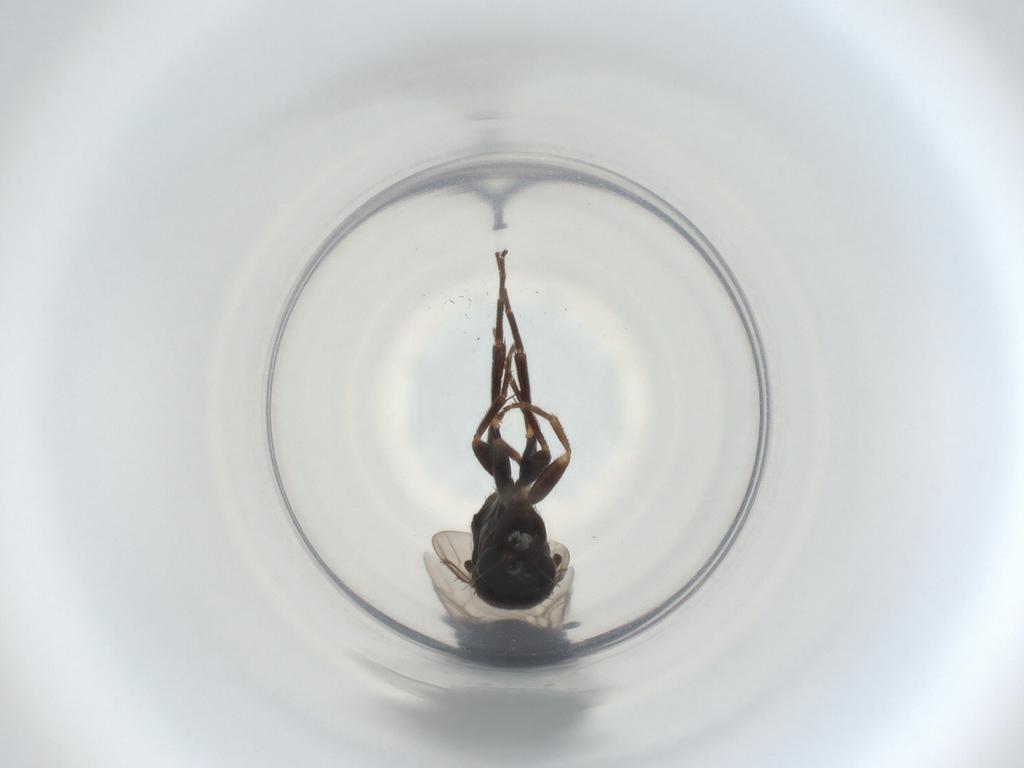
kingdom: Animalia
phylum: Arthropoda
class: Insecta
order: Diptera
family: Phoridae
